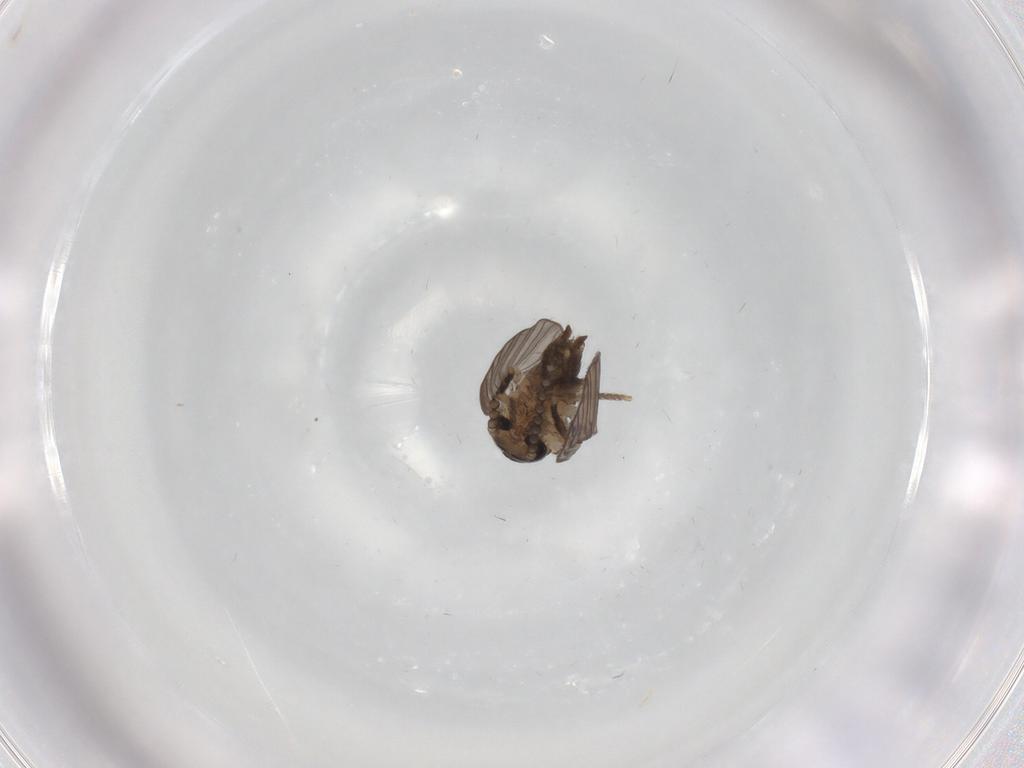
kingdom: Animalia
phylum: Arthropoda
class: Insecta
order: Diptera
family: Psychodidae
